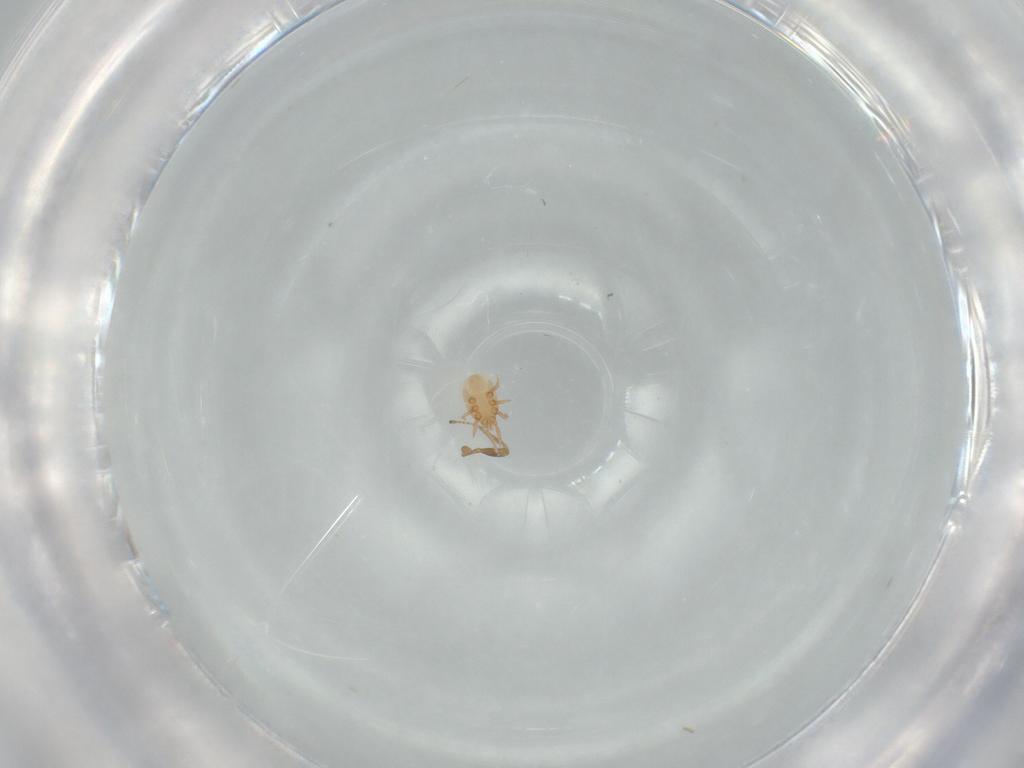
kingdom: Animalia
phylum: Arthropoda
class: Arachnida
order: Mesostigmata
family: Dinychidae
